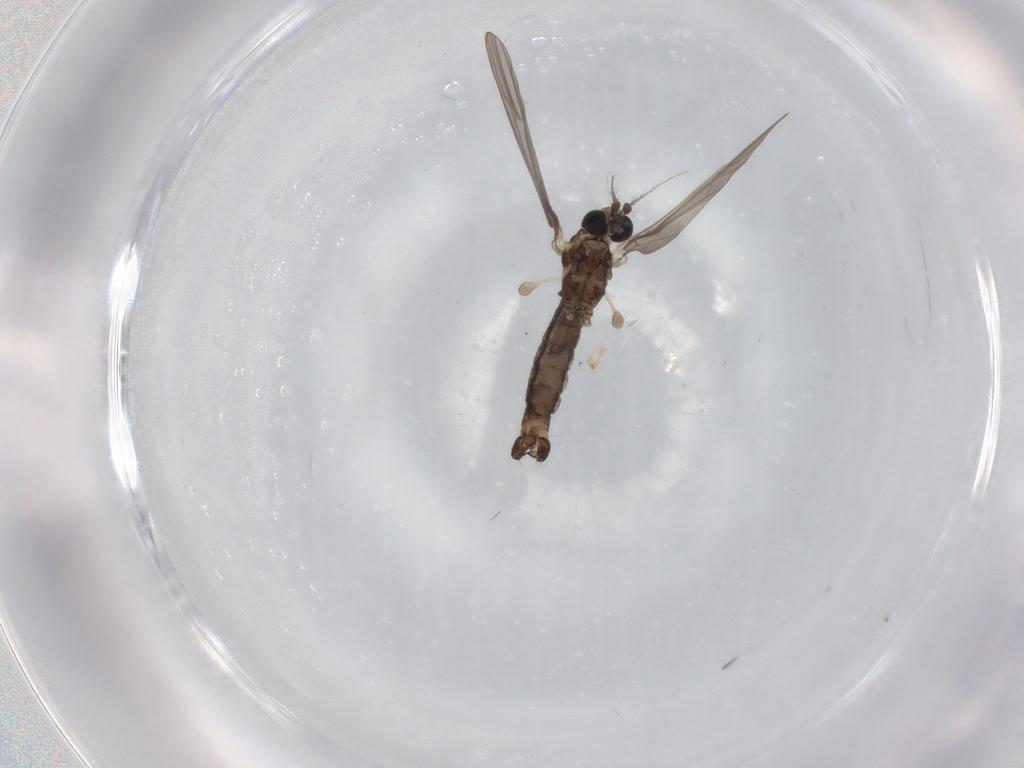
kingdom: Animalia
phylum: Arthropoda
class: Insecta
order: Diptera
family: Limoniidae
